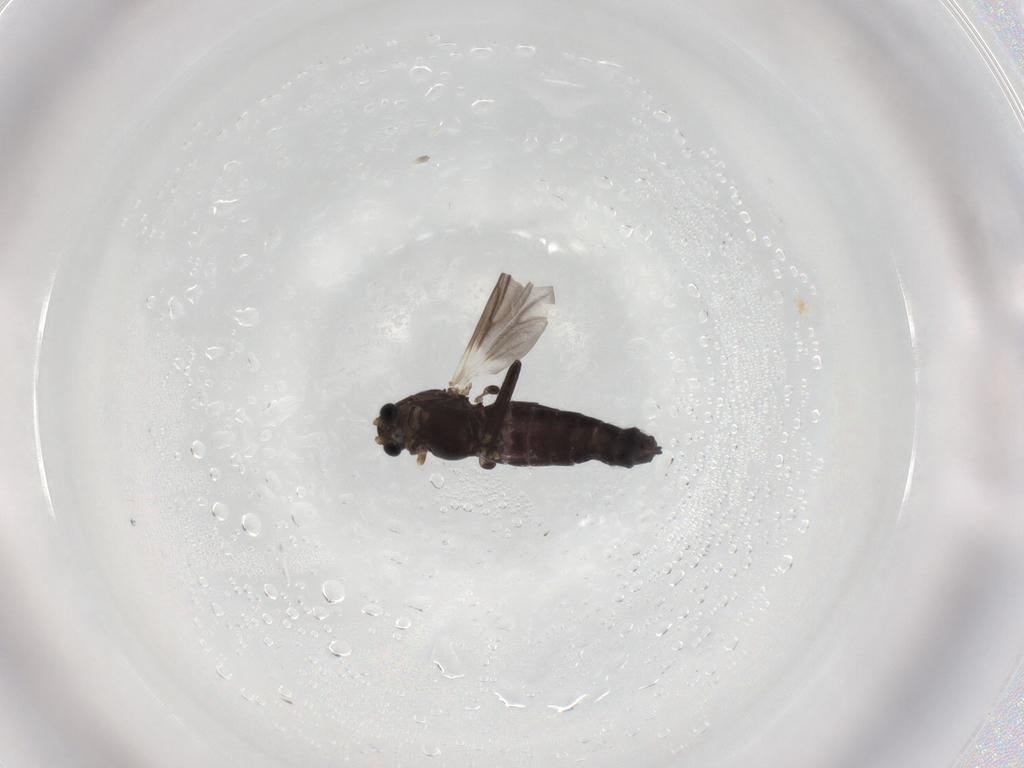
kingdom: Animalia
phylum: Arthropoda
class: Insecta
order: Diptera
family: Chironomidae
